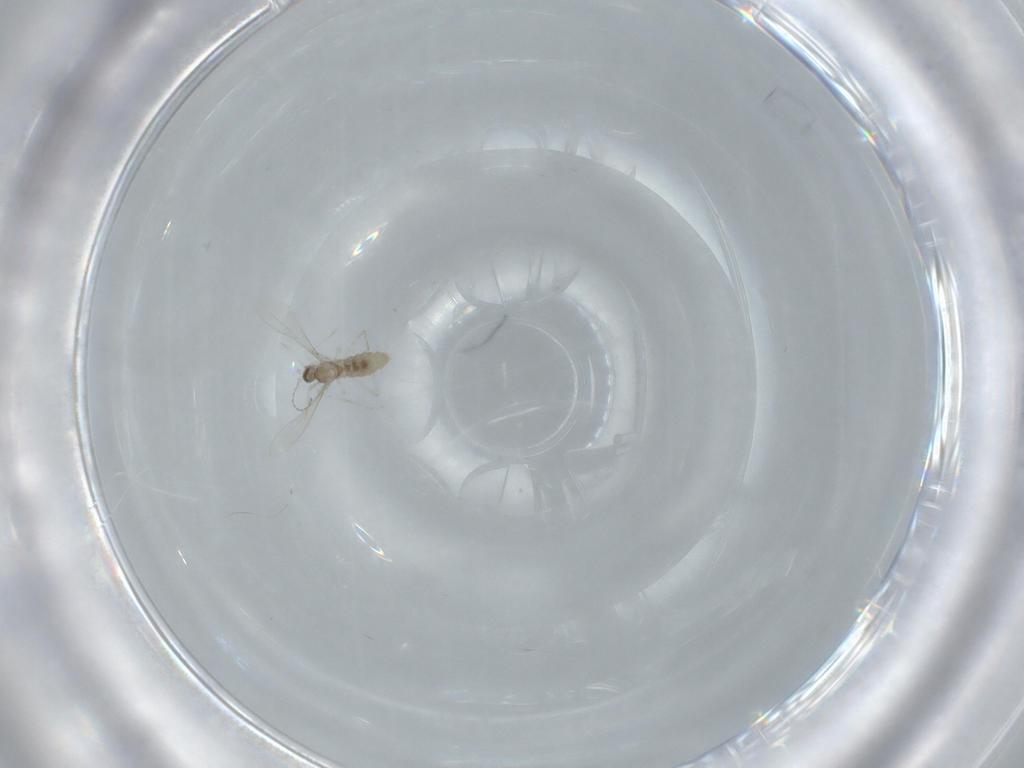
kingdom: Animalia
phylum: Arthropoda
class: Insecta
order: Diptera
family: Cecidomyiidae
